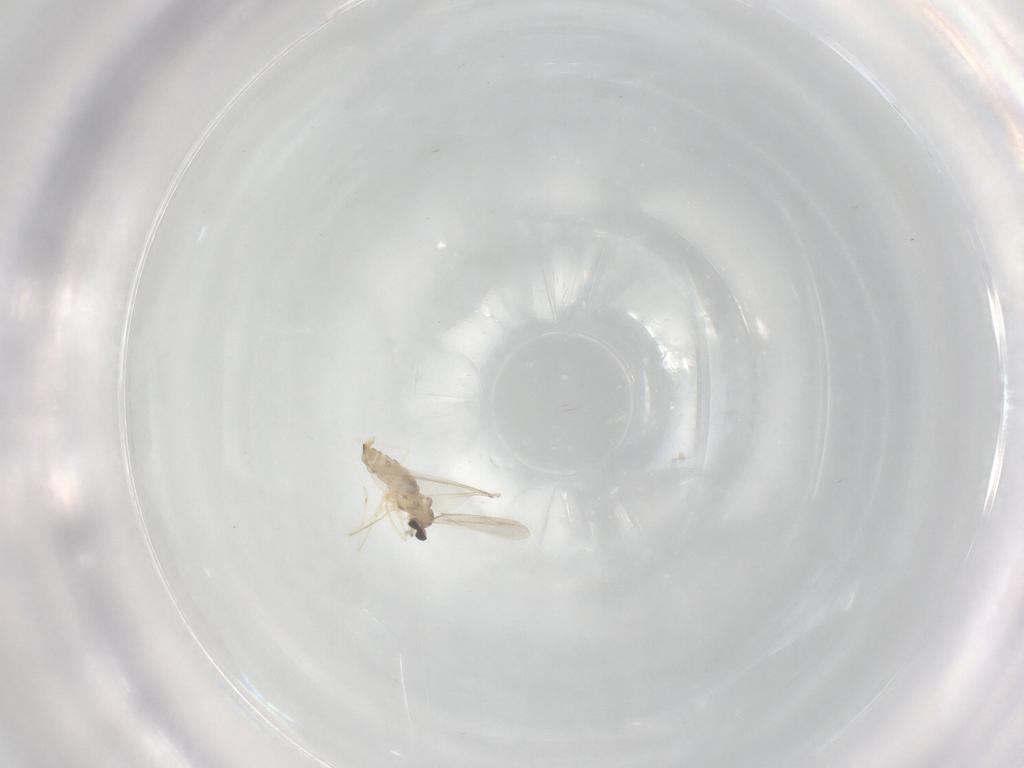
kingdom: Animalia
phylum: Arthropoda
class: Insecta
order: Diptera
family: Cecidomyiidae
